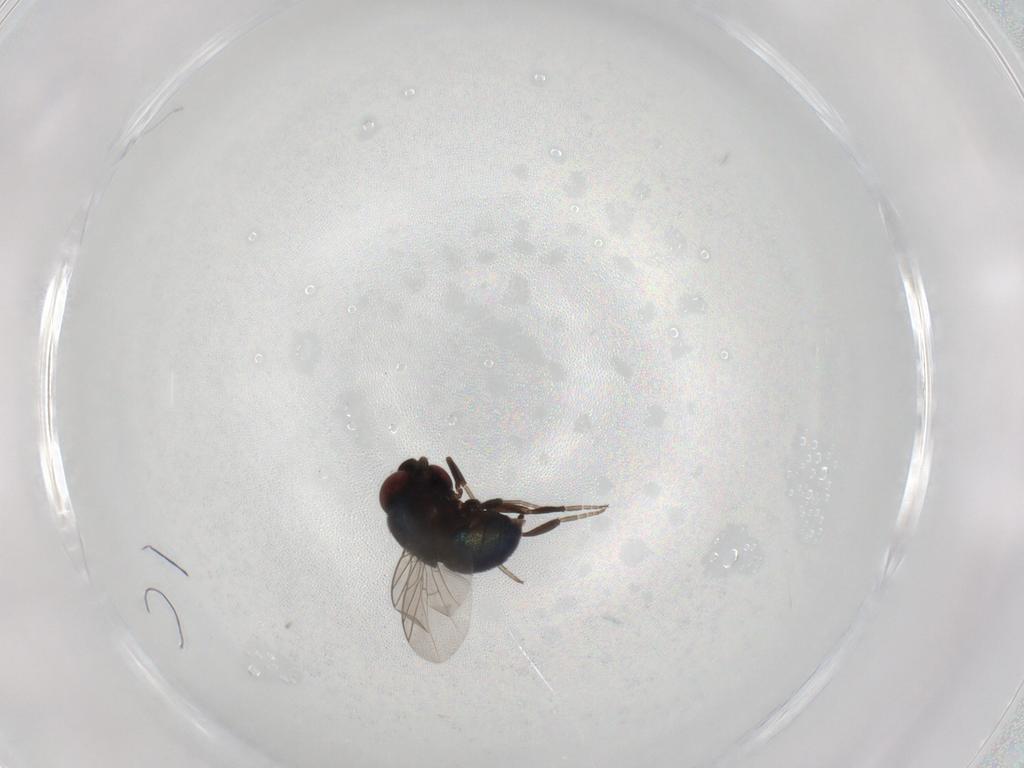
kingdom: Animalia
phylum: Arthropoda
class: Insecta
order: Diptera
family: Cryptochetidae
